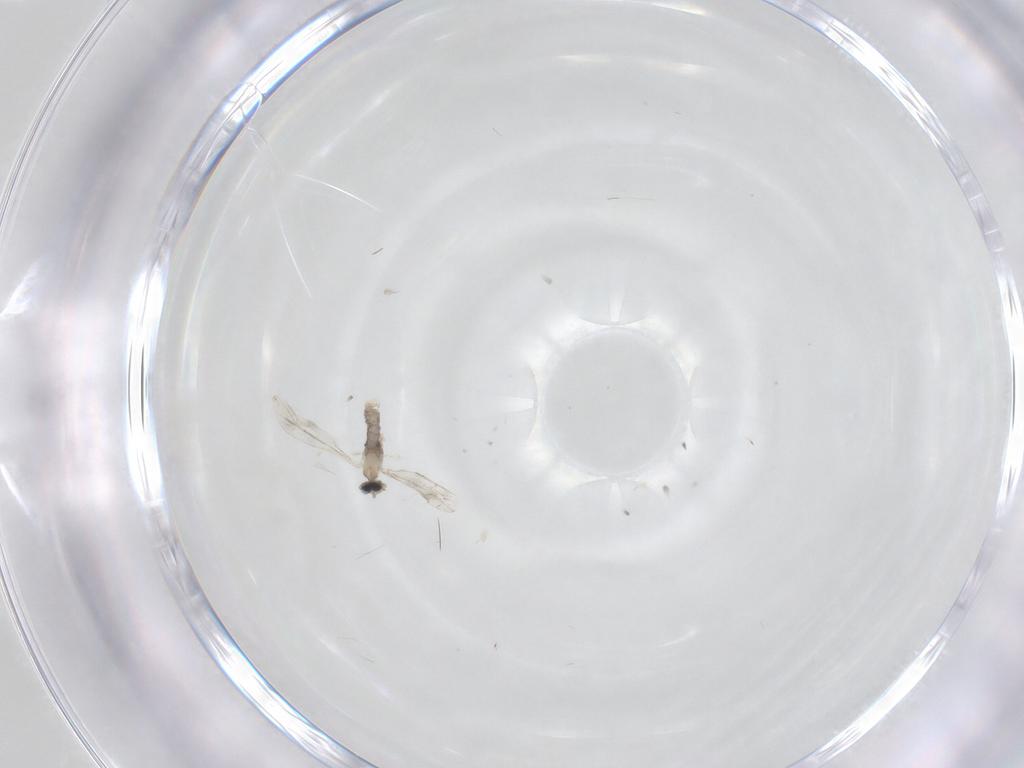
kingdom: Animalia
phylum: Arthropoda
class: Insecta
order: Diptera
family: Cecidomyiidae
